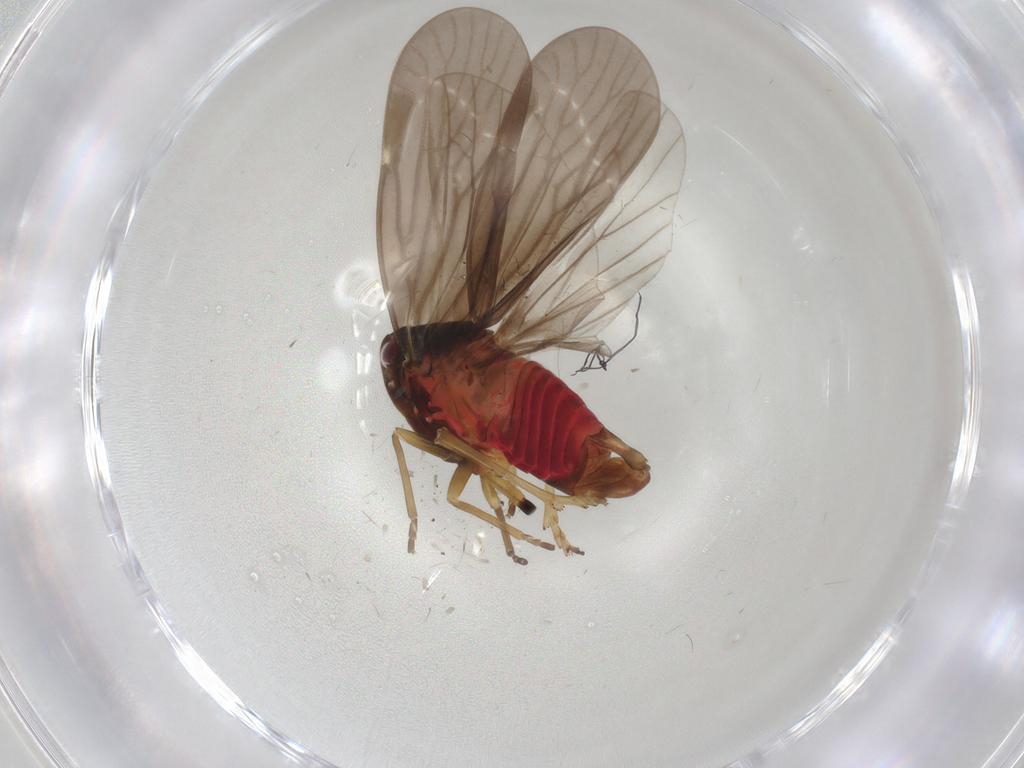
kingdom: Animalia
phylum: Arthropoda
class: Insecta
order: Hemiptera
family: Derbidae
